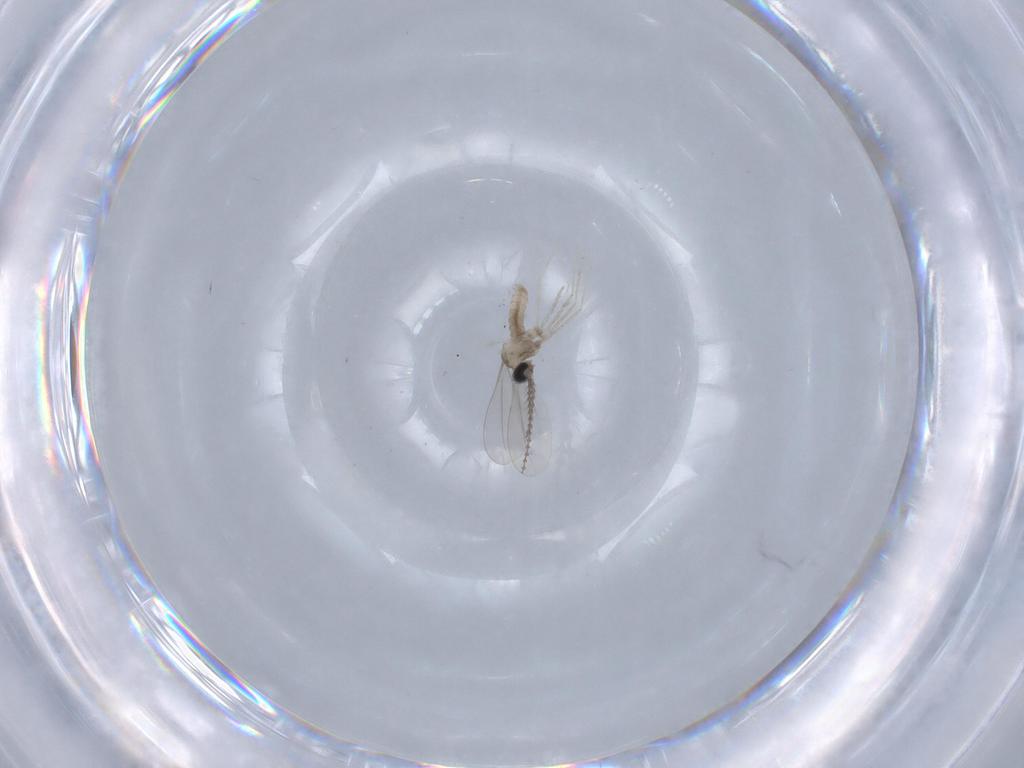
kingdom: Animalia
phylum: Arthropoda
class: Insecta
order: Diptera
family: Cecidomyiidae
